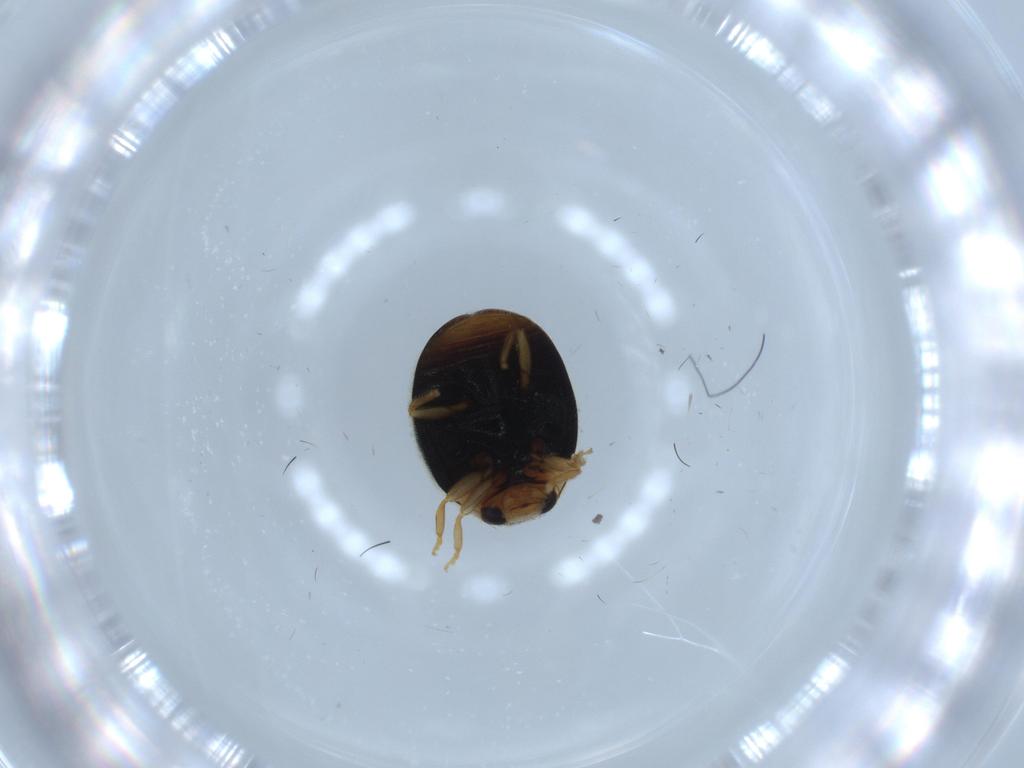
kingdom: Animalia
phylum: Arthropoda
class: Insecta
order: Coleoptera
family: Coccinellidae
